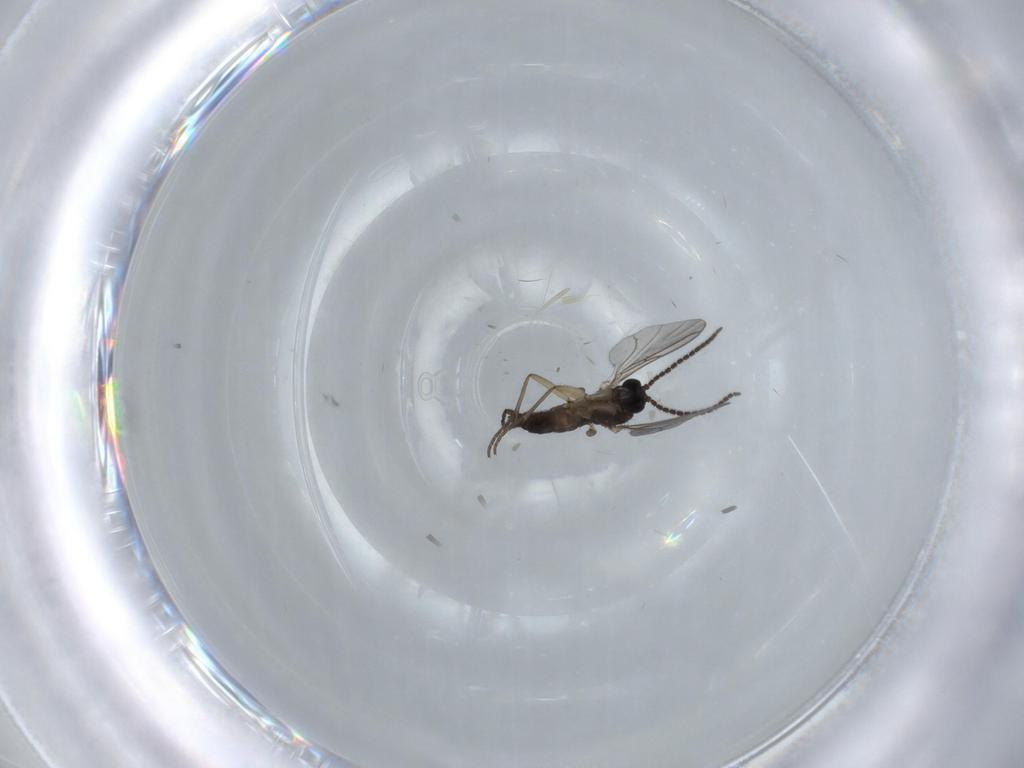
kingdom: Animalia
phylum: Arthropoda
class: Insecta
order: Diptera
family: Sciaridae
